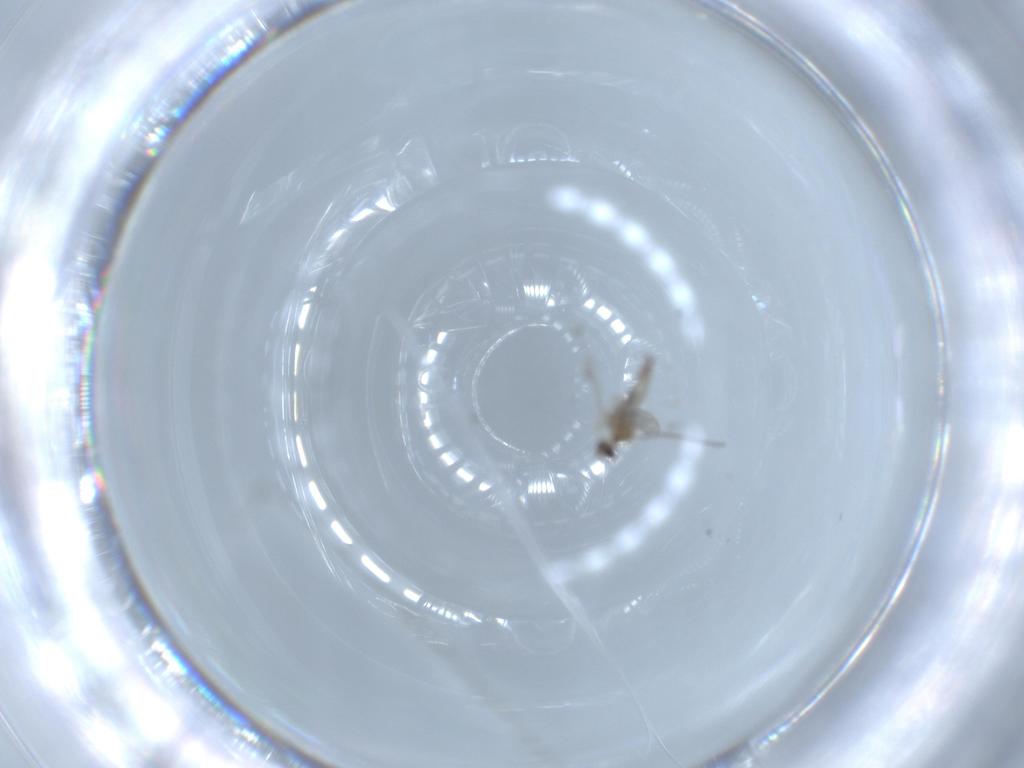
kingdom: Animalia
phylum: Arthropoda
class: Insecta
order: Diptera
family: Cecidomyiidae
